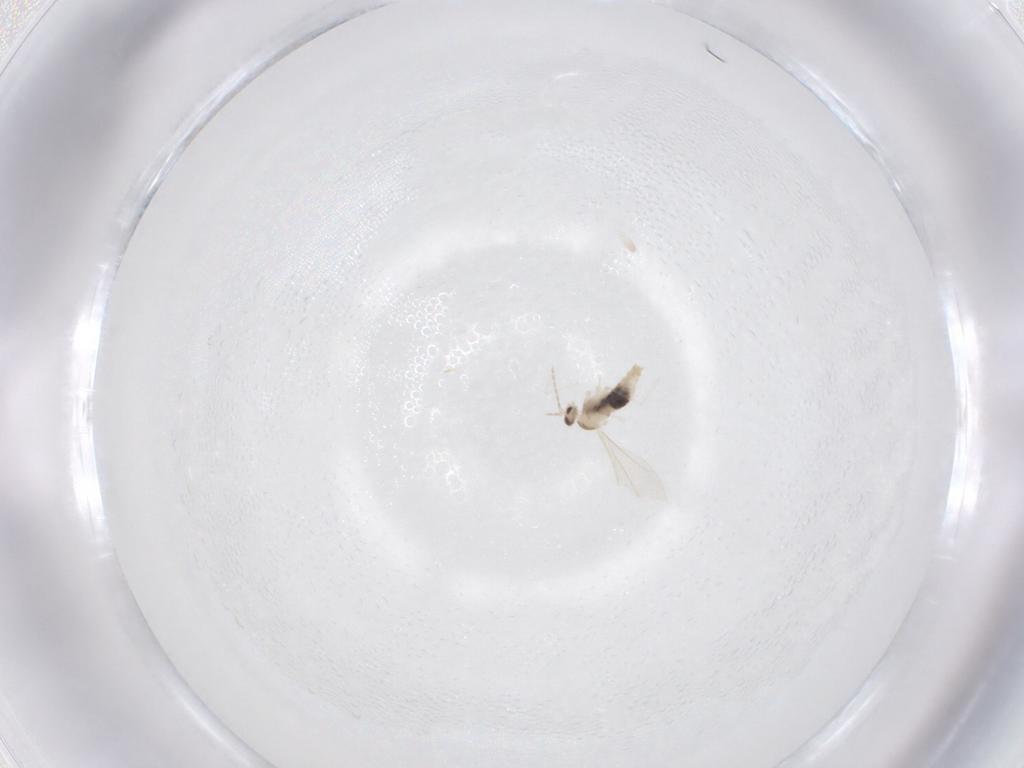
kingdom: Animalia
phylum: Arthropoda
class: Insecta
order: Diptera
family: Cecidomyiidae
